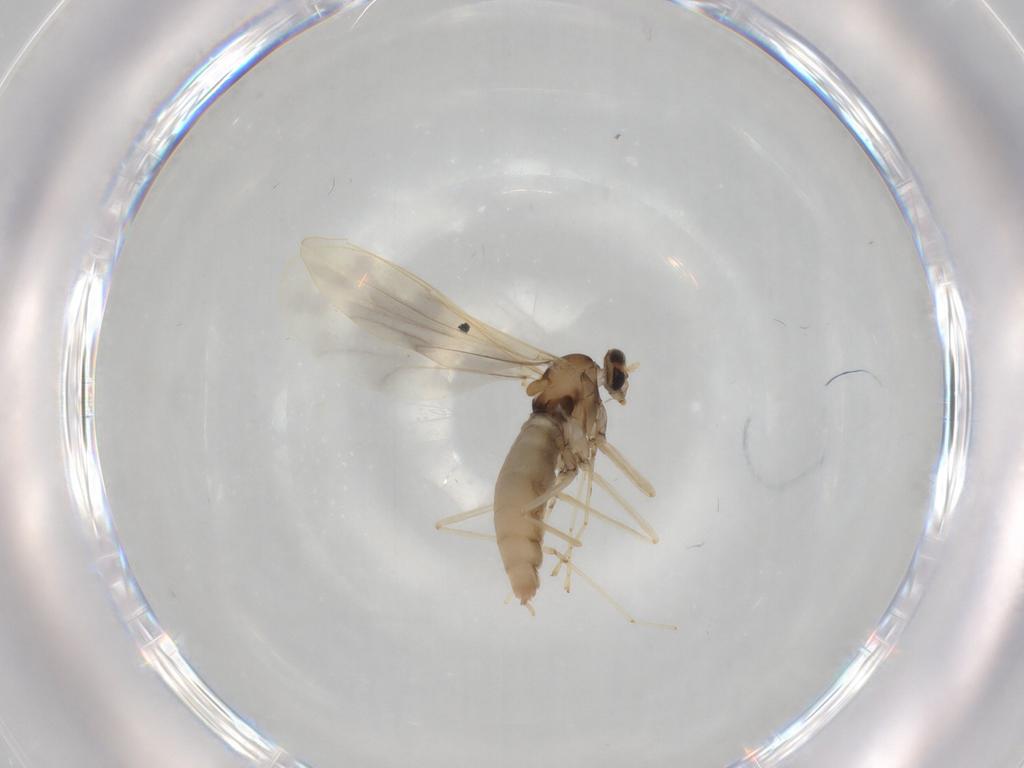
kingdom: Animalia
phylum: Arthropoda
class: Insecta
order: Diptera
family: Cecidomyiidae
